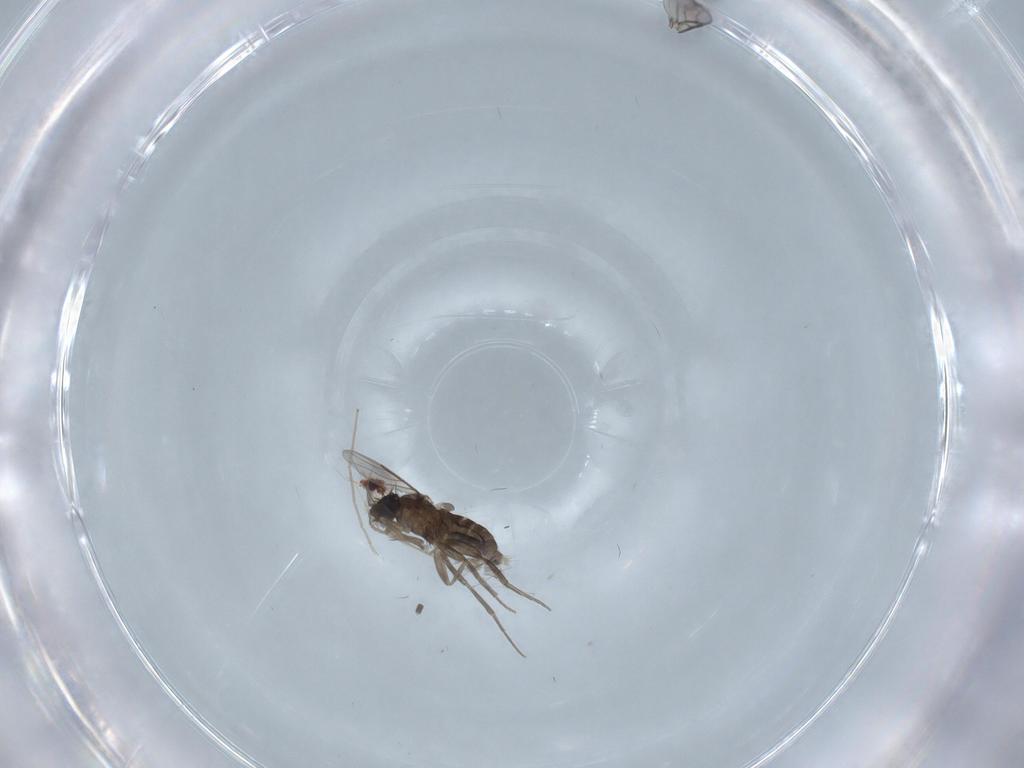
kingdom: Animalia
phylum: Arthropoda
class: Insecta
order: Diptera
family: Phoridae
